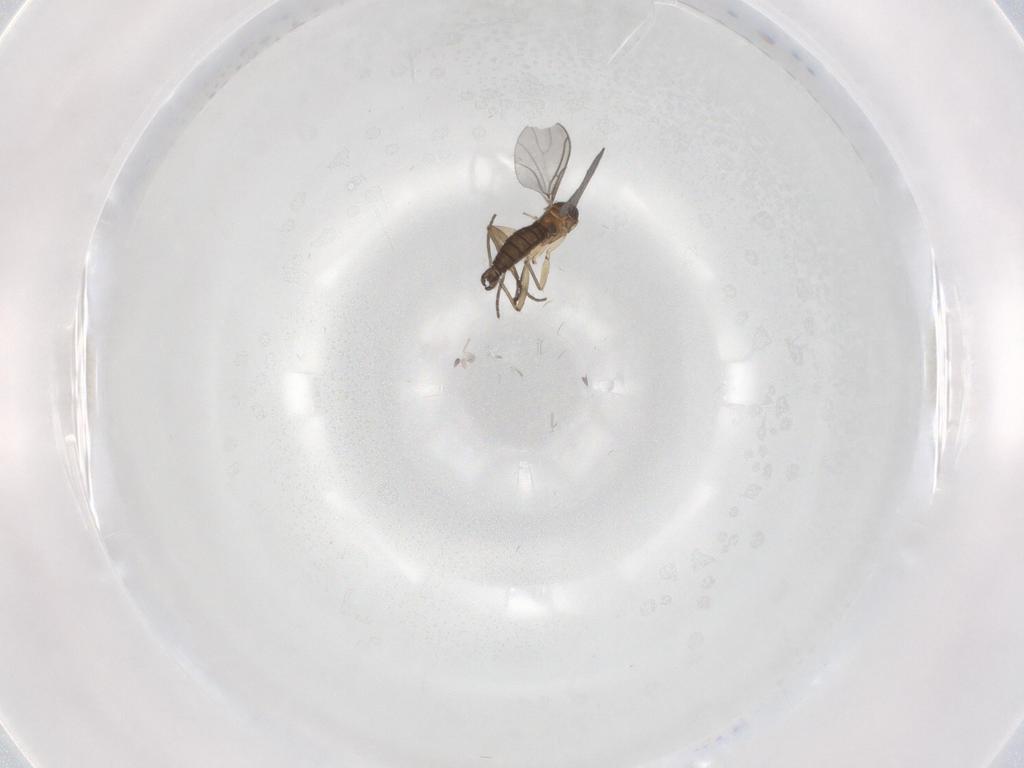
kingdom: Animalia
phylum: Arthropoda
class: Insecta
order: Diptera
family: Sciaridae
